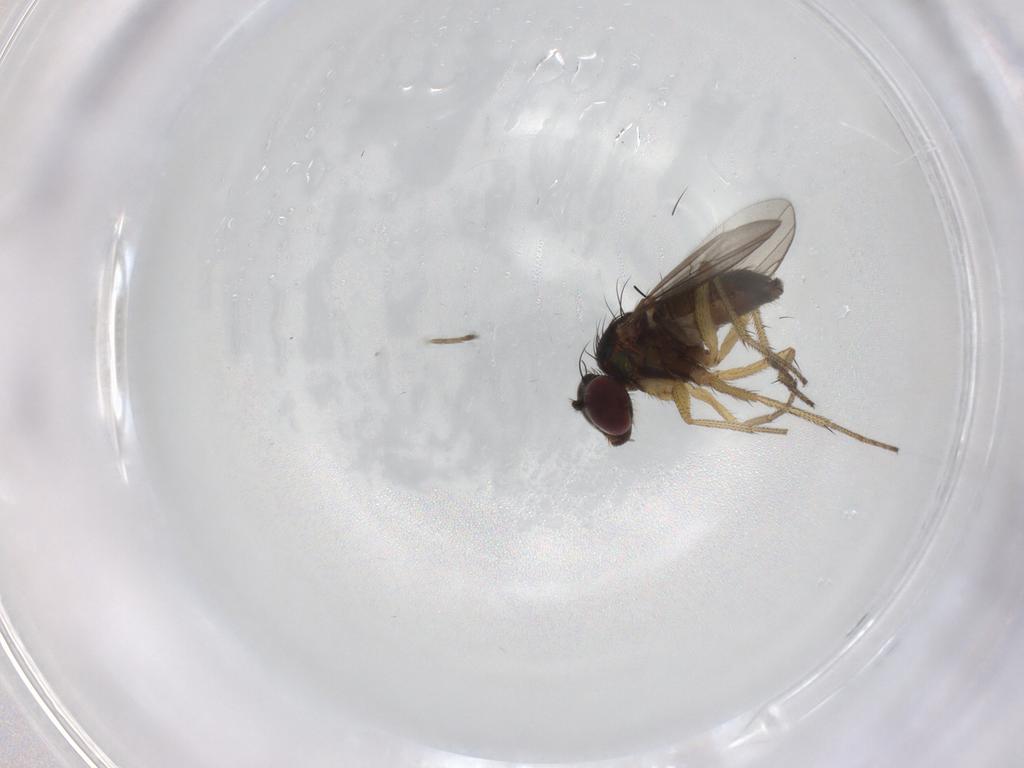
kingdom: Animalia
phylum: Arthropoda
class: Insecta
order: Diptera
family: Dolichopodidae
